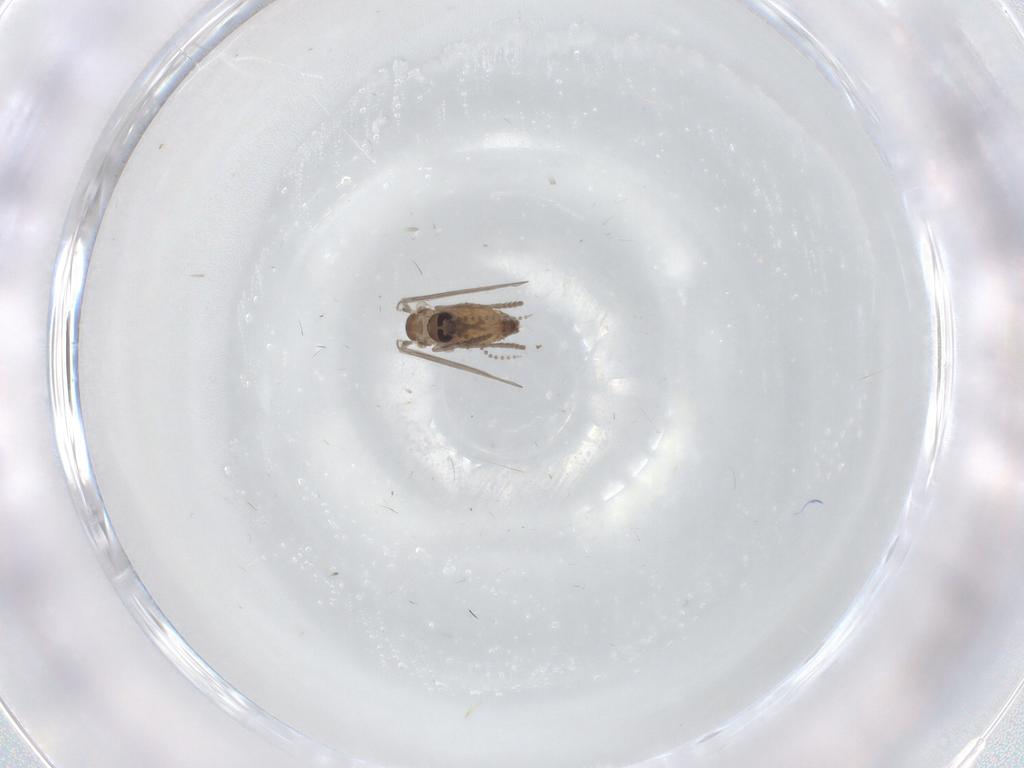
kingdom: Animalia
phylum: Arthropoda
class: Insecta
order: Diptera
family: Psychodidae
